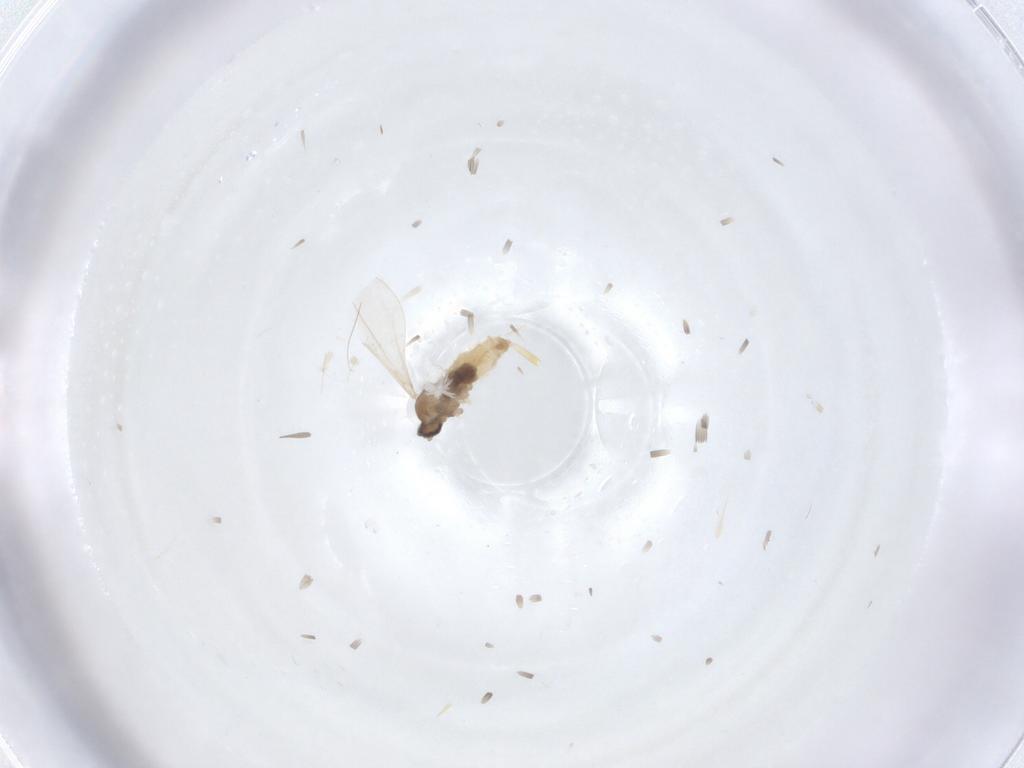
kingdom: Animalia
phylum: Arthropoda
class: Insecta
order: Diptera
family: Cecidomyiidae
